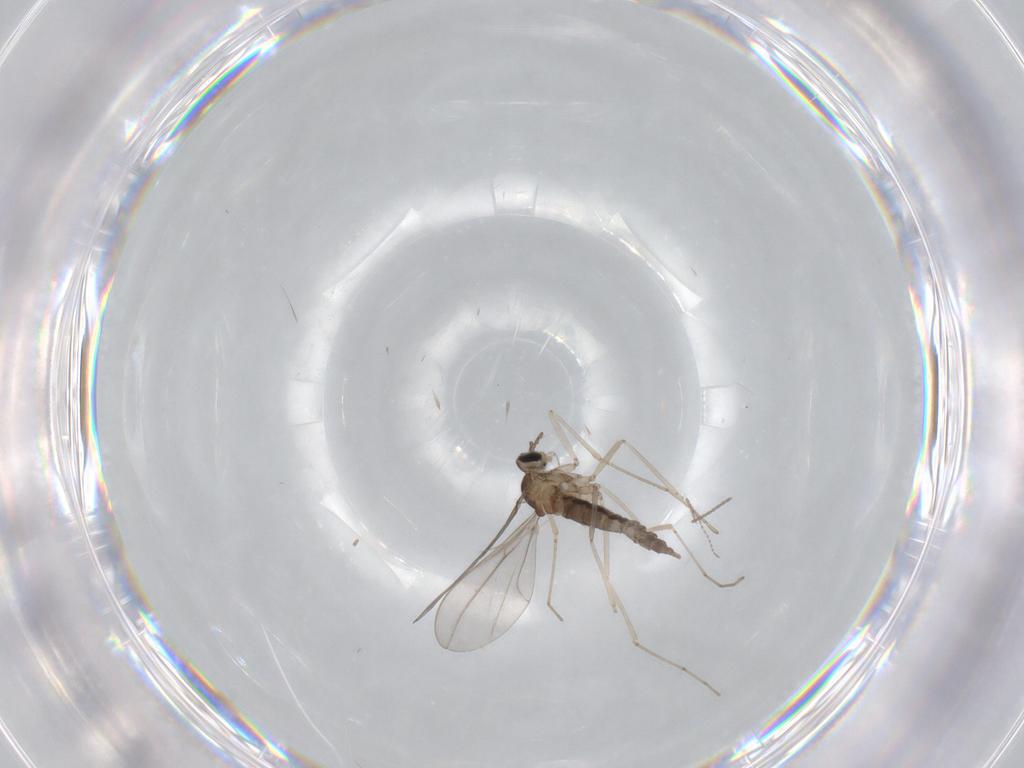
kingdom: Animalia
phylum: Arthropoda
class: Insecta
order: Diptera
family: Cecidomyiidae
